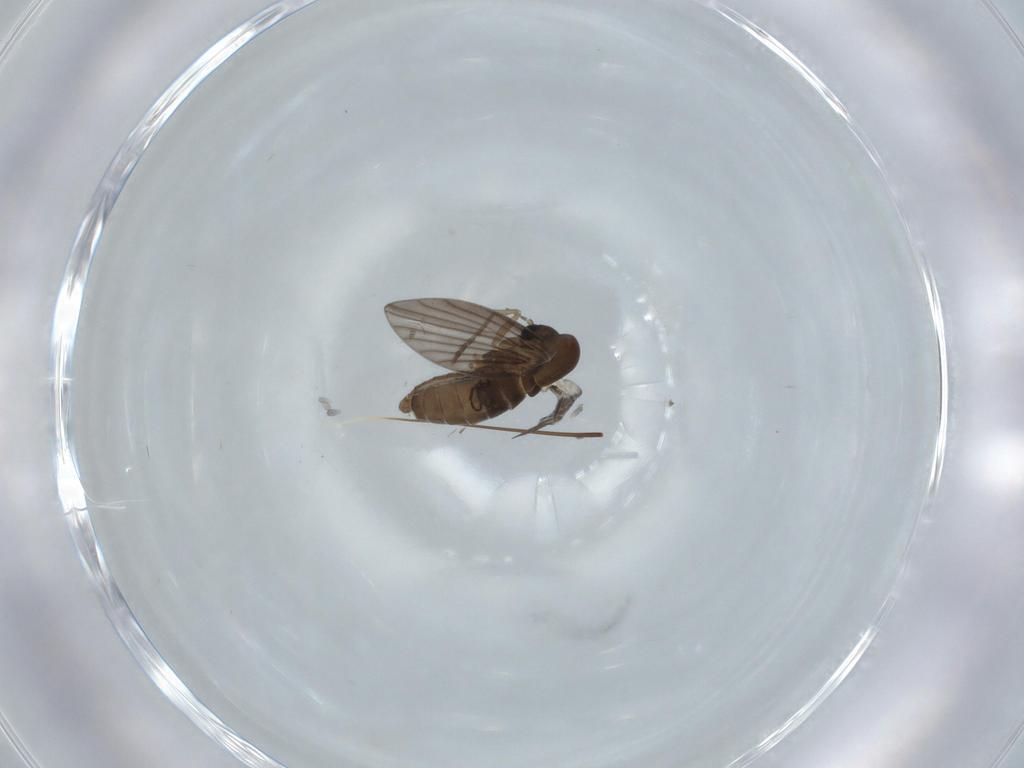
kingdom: Animalia
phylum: Arthropoda
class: Insecta
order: Diptera
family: Psychodidae
